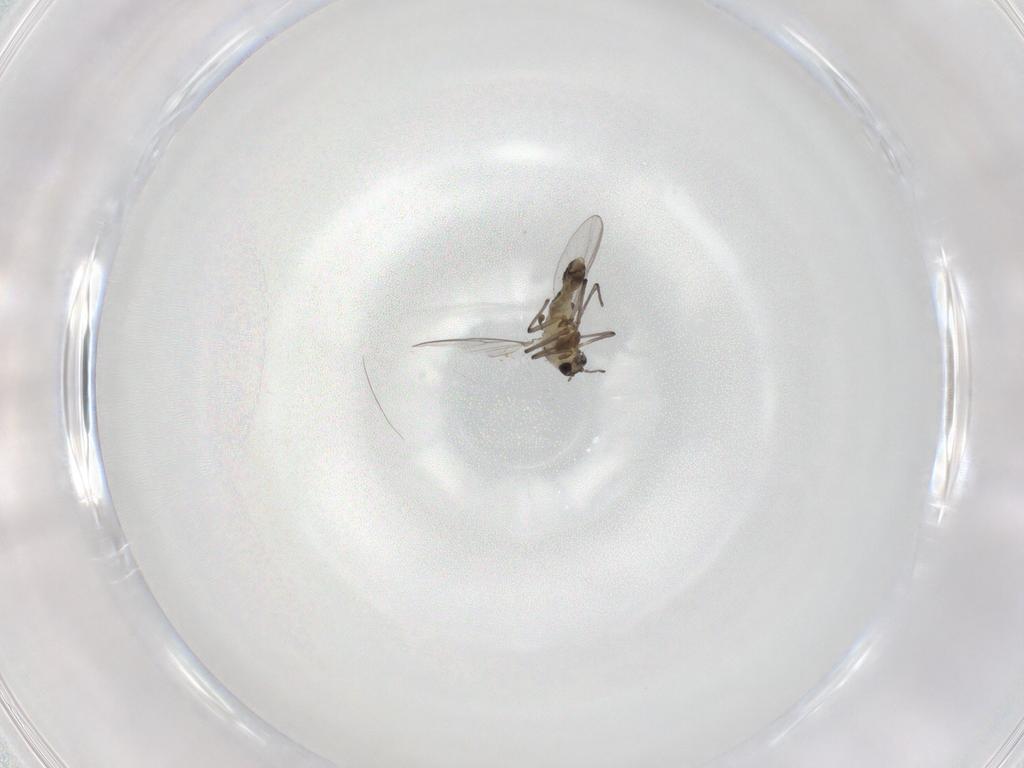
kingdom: Animalia
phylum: Arthropoda
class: Insecta
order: Diptera
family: Chironomidae
